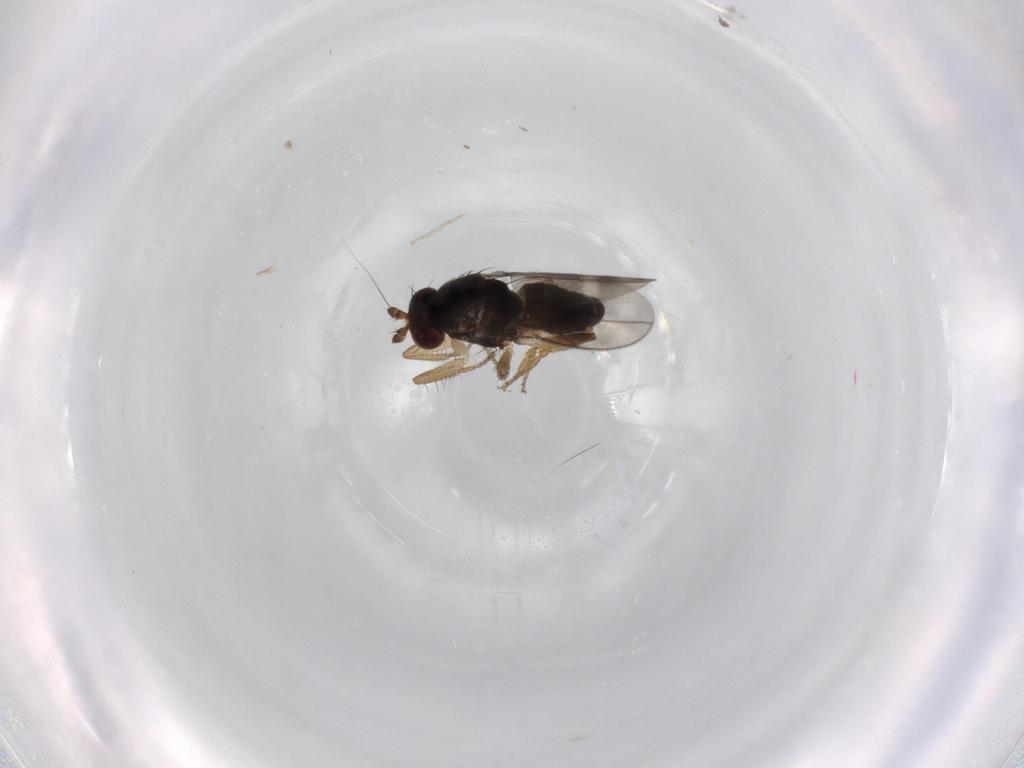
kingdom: Animalia
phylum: Arthropoda
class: Insecta
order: Diptera
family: Sphaeroceridae
